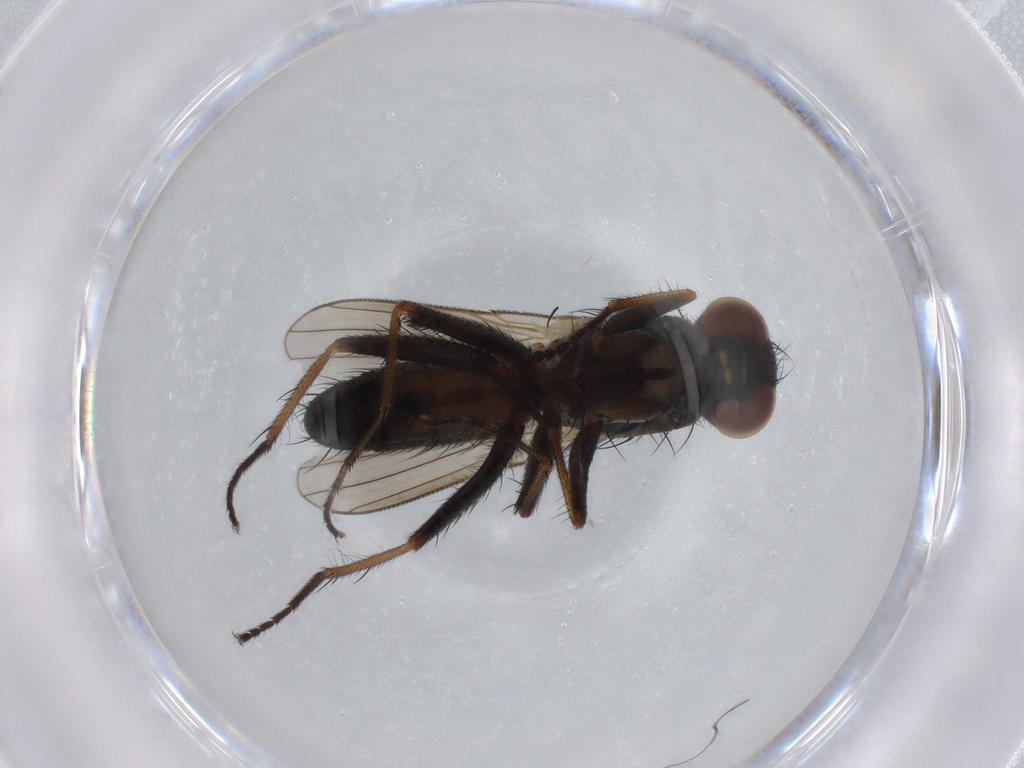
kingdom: Animalia
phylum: Arthropoda
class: Insecta
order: Diptera
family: Muscidae
